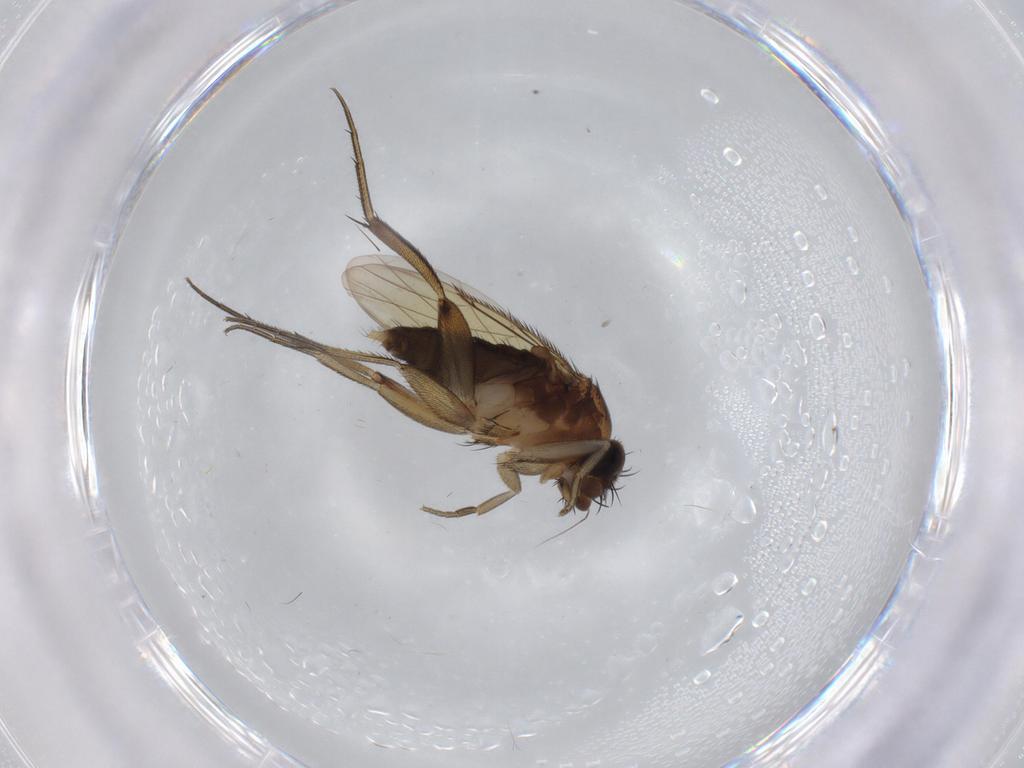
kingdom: Animalia
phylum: Arthropoda
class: Insecta
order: Diptera
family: Phoridae
